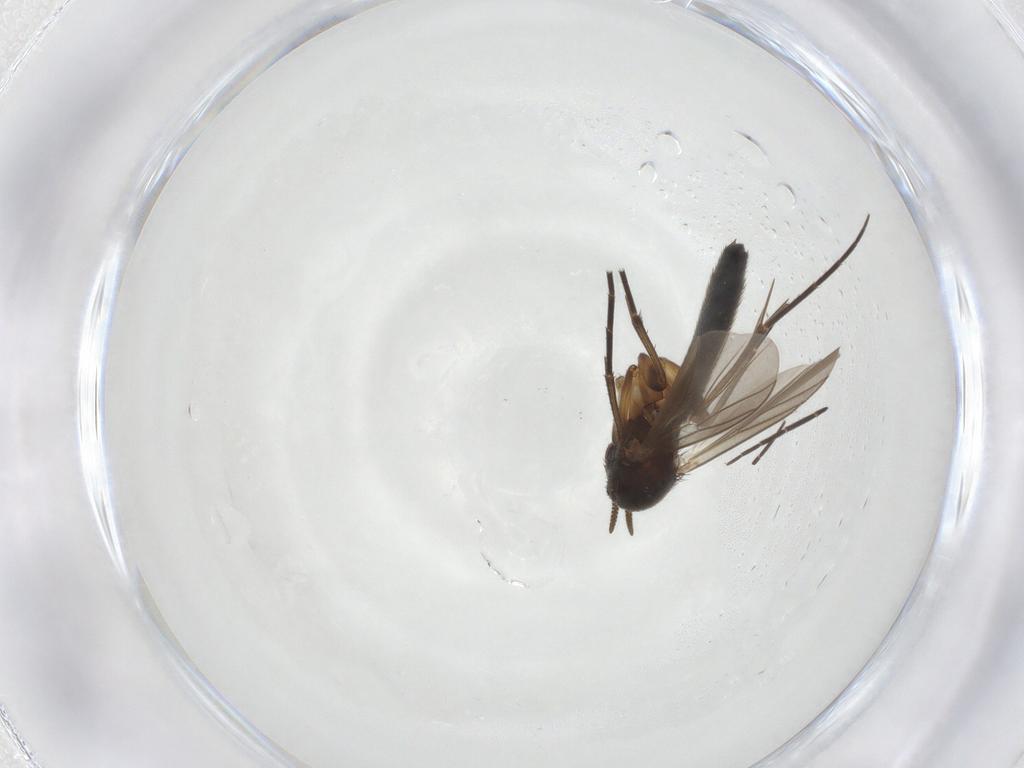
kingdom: Animalia
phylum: Arthropoda
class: Insecta
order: Diptera
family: Mycetophilidae
